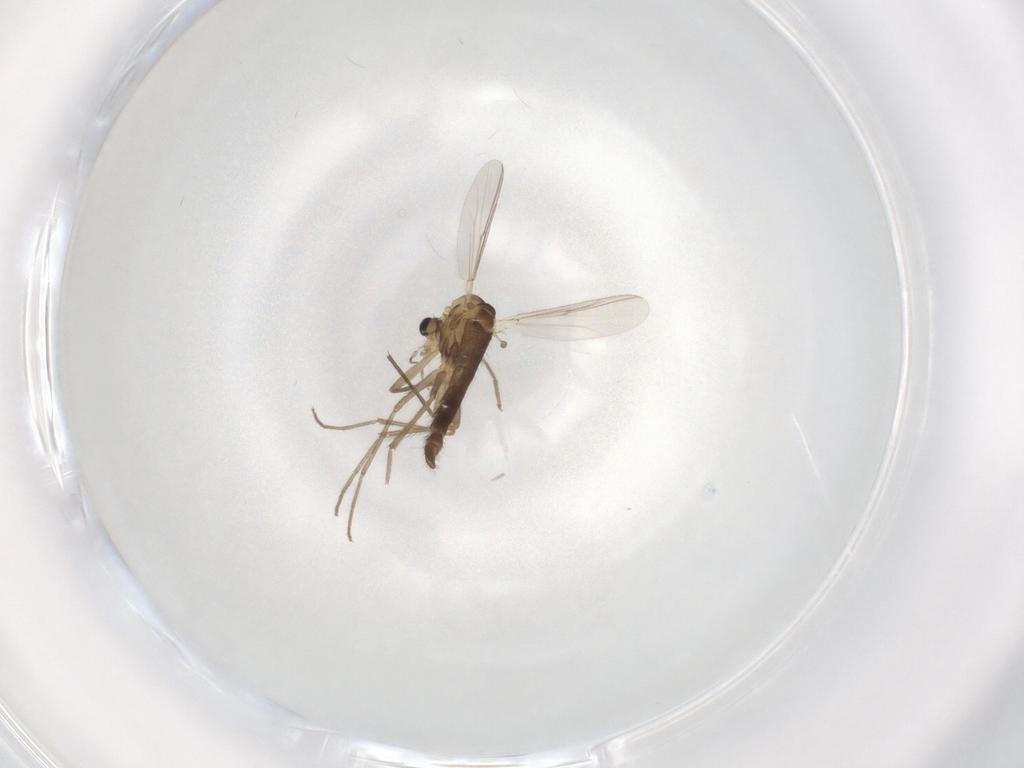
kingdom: Animalia
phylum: Arthropoda
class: Insecta
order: Diptera
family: Chironomidae
